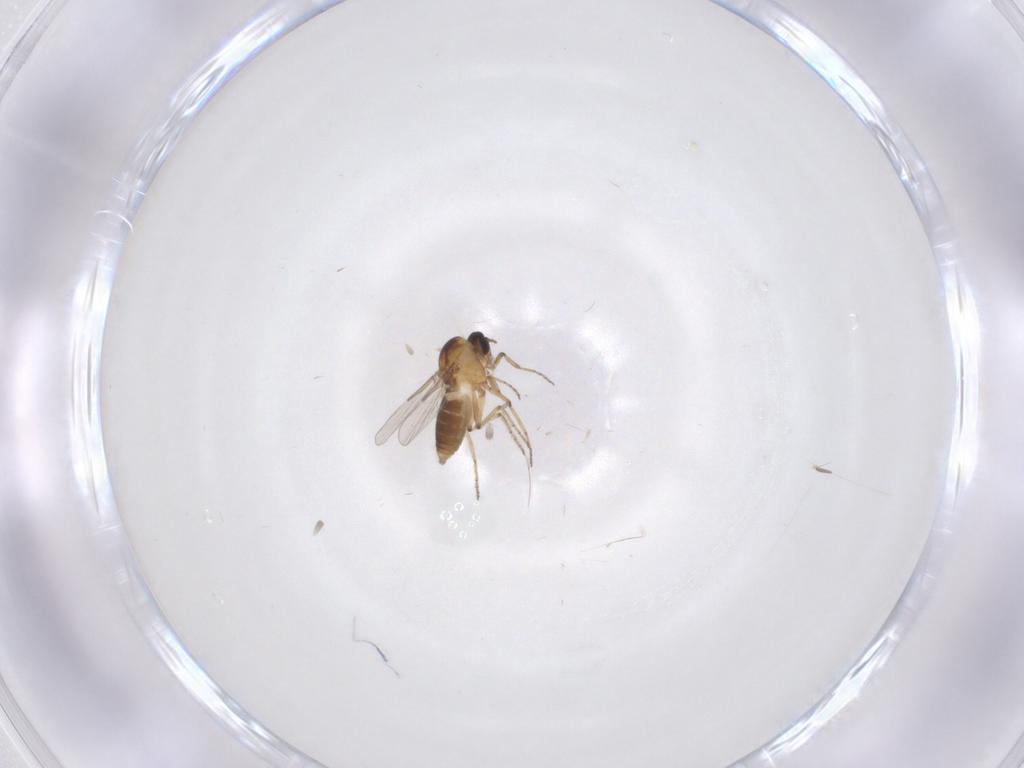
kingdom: Animalia
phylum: Arthropoda
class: Insecta
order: Diptera
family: Ceratopogonidae
